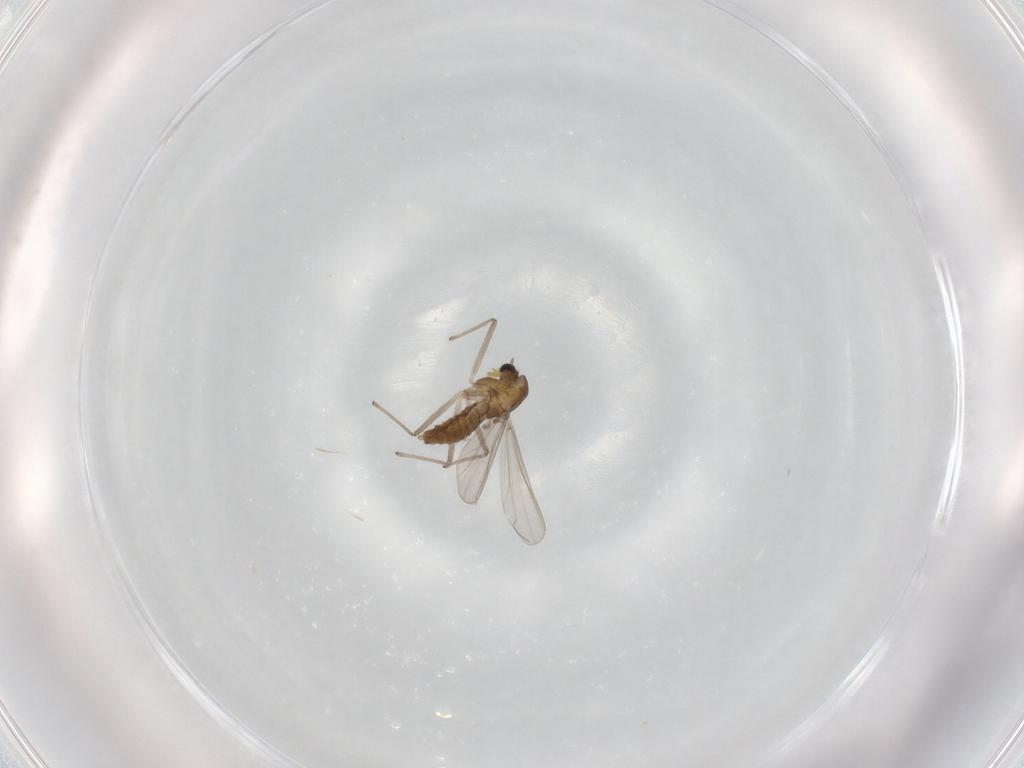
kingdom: Animalia
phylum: Arthropoda
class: Insecta
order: Diptera
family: Chironomidae
